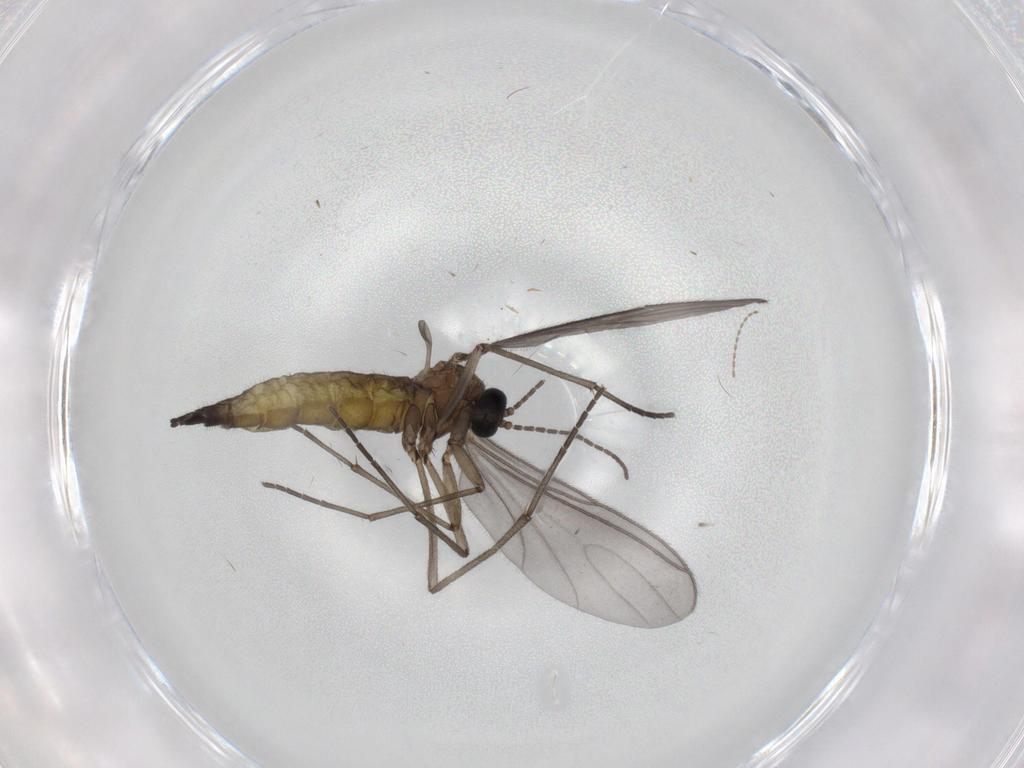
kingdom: Animalia
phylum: Arthropoda
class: Insecta
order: Diptera
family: Sciaridae
